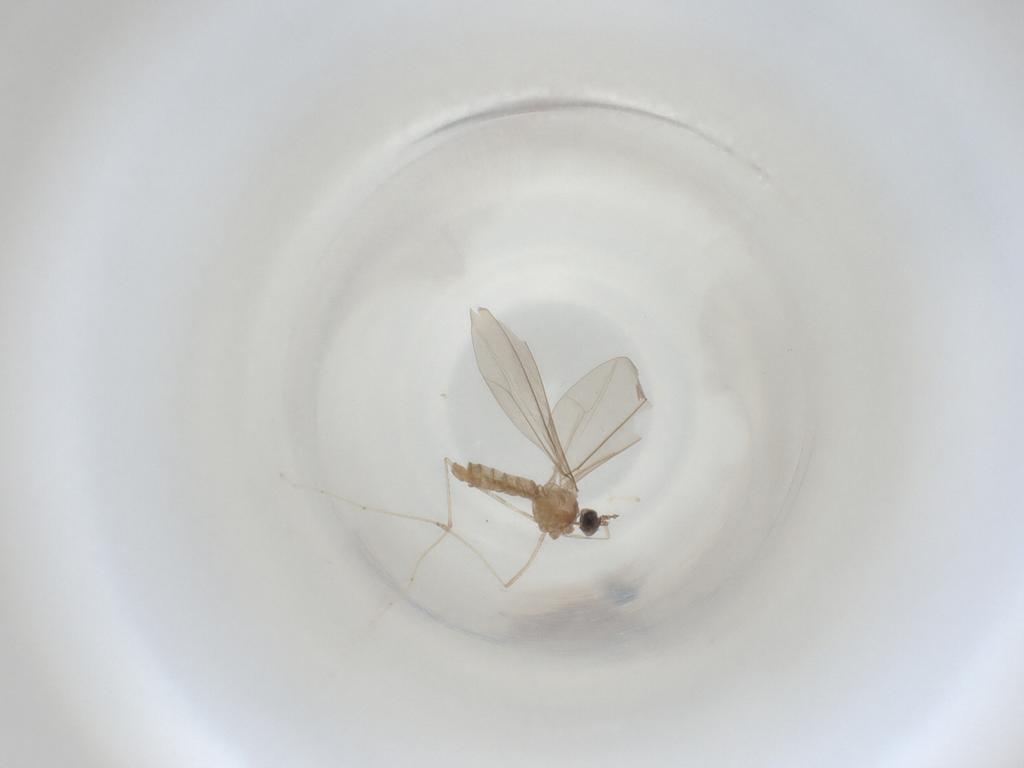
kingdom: Animalia
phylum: Arthropoda
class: Insecta
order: Diptera
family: Cecidomyiidae
